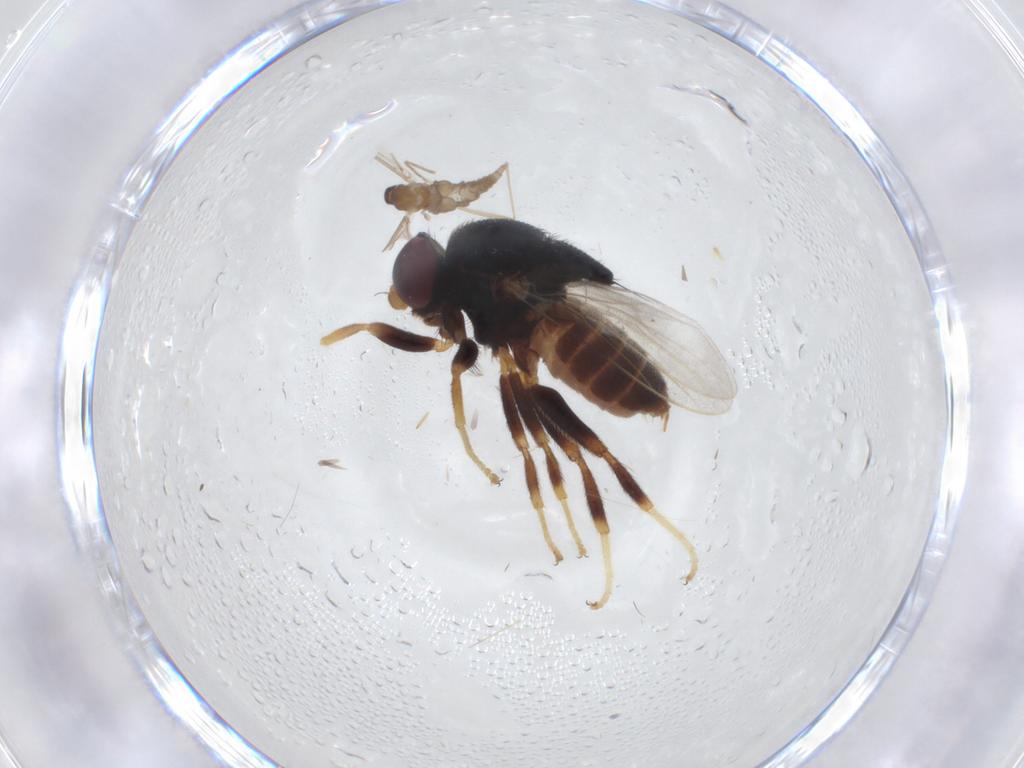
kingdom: Animalia
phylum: Arthropoda
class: Insecta
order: Diptera
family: Chloropidae
